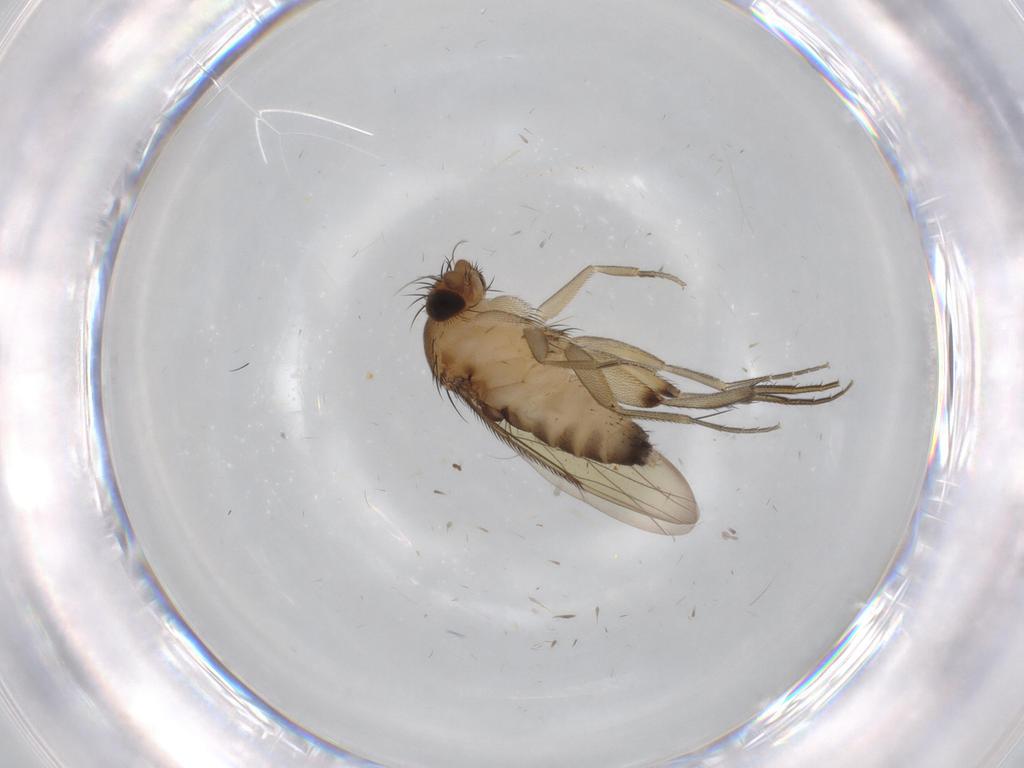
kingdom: Animalia
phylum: Arthropoda
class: Insecta
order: Diptera
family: Phoridae
